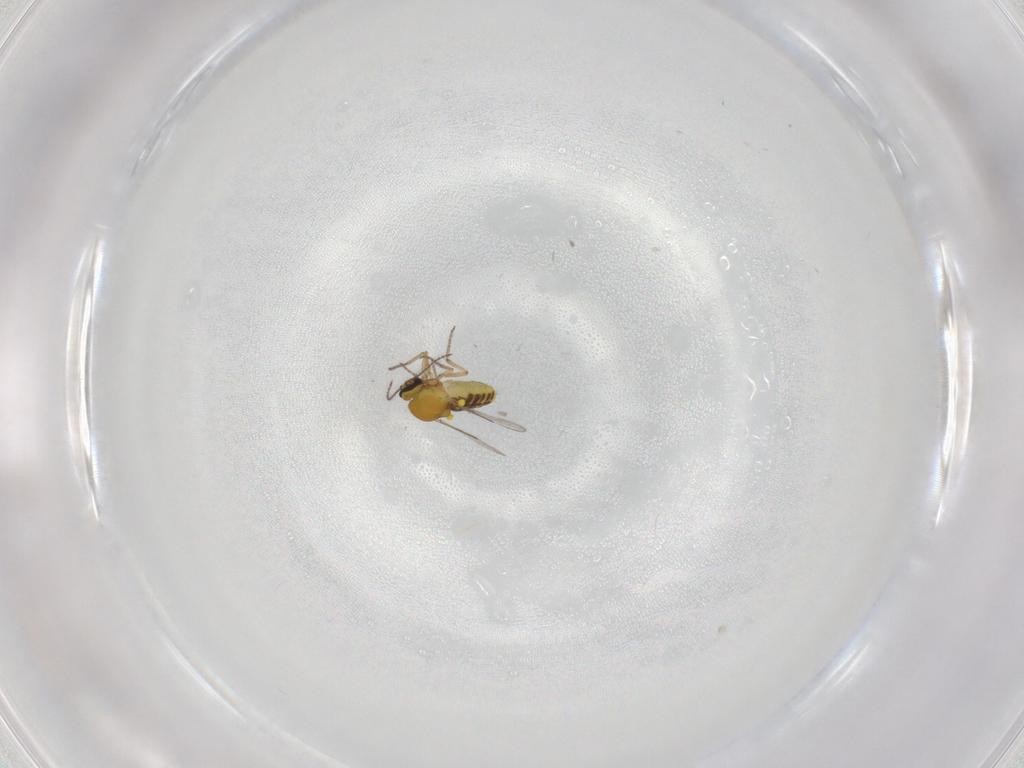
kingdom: Animalia
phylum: Arthropoda
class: Insecta
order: Diptera
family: Ceratopogonidae
